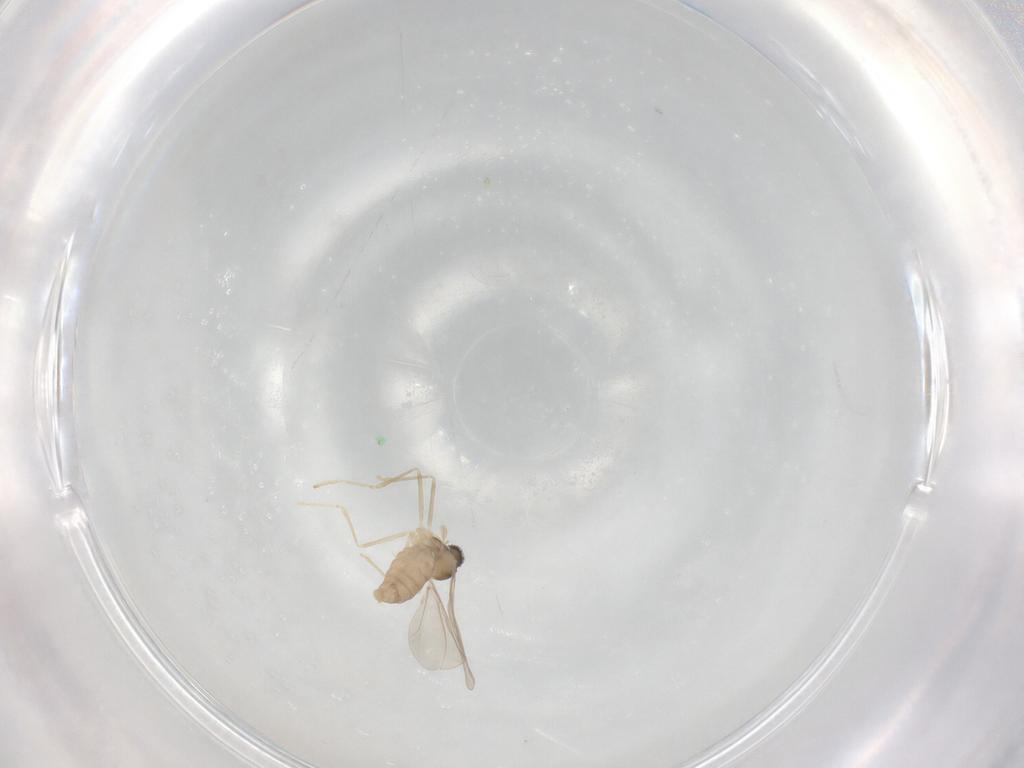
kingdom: Animalia
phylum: Arthropoda
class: Insecta
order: Diptera
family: Cecidomyiidae
